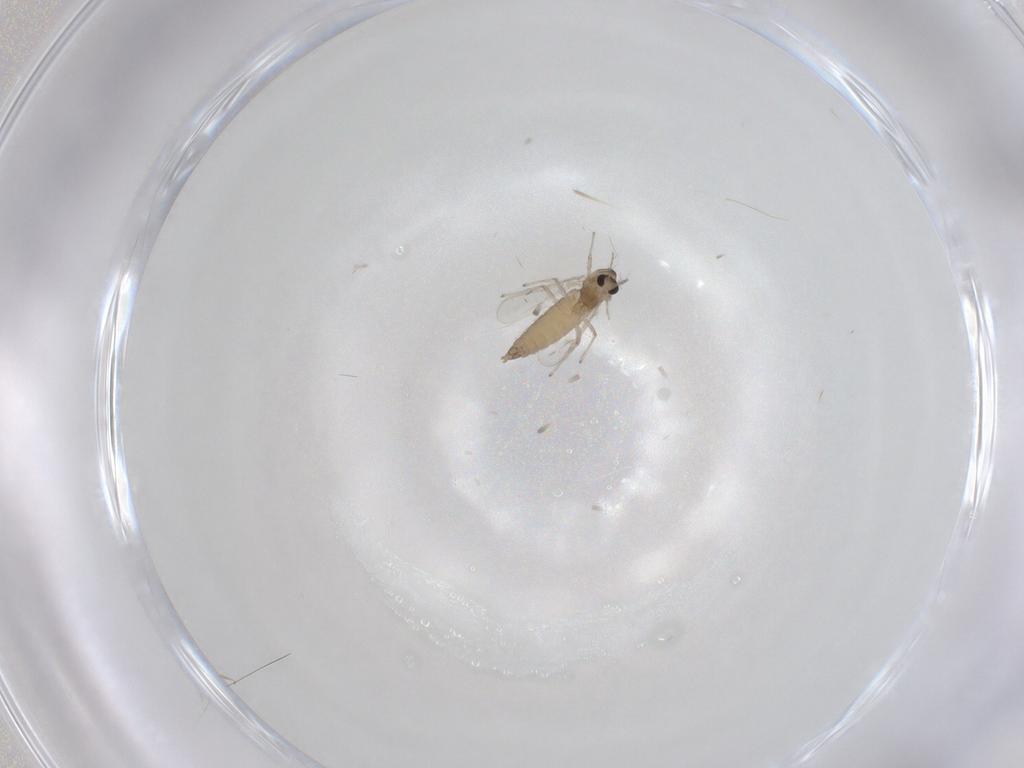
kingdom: Animalia
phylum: Arthropoda
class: Insecta
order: Diptera
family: Chironomidae
